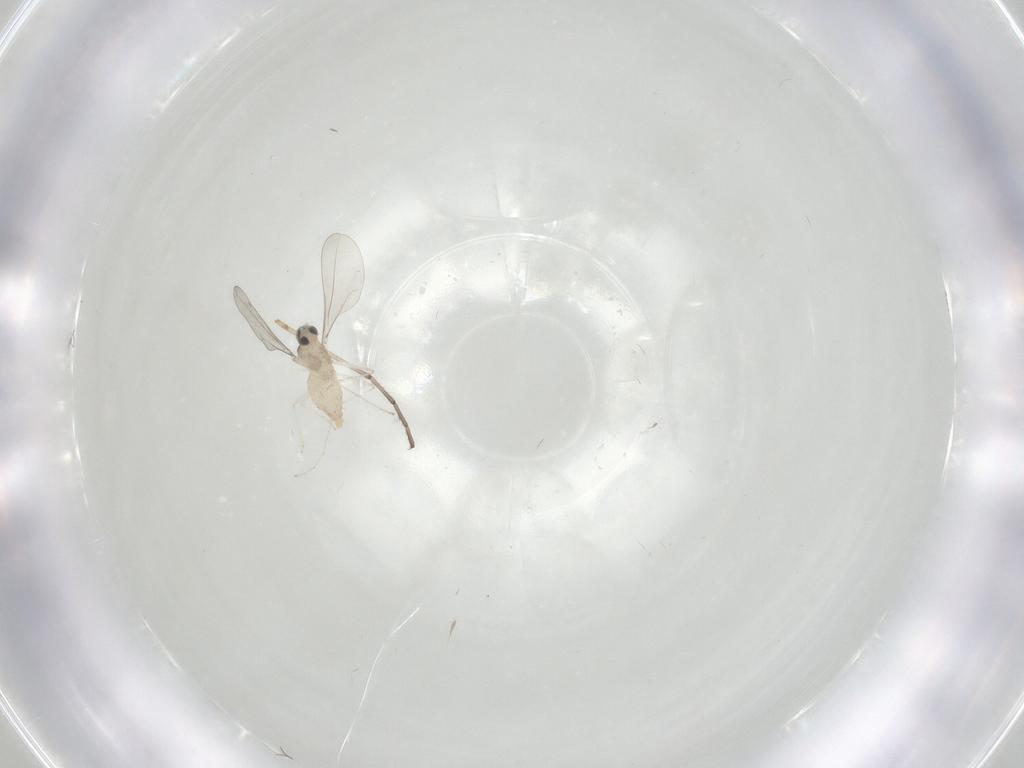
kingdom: Animalia
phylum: Arthropoda
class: Insecta
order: Diptera
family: Cecidomyiidae
